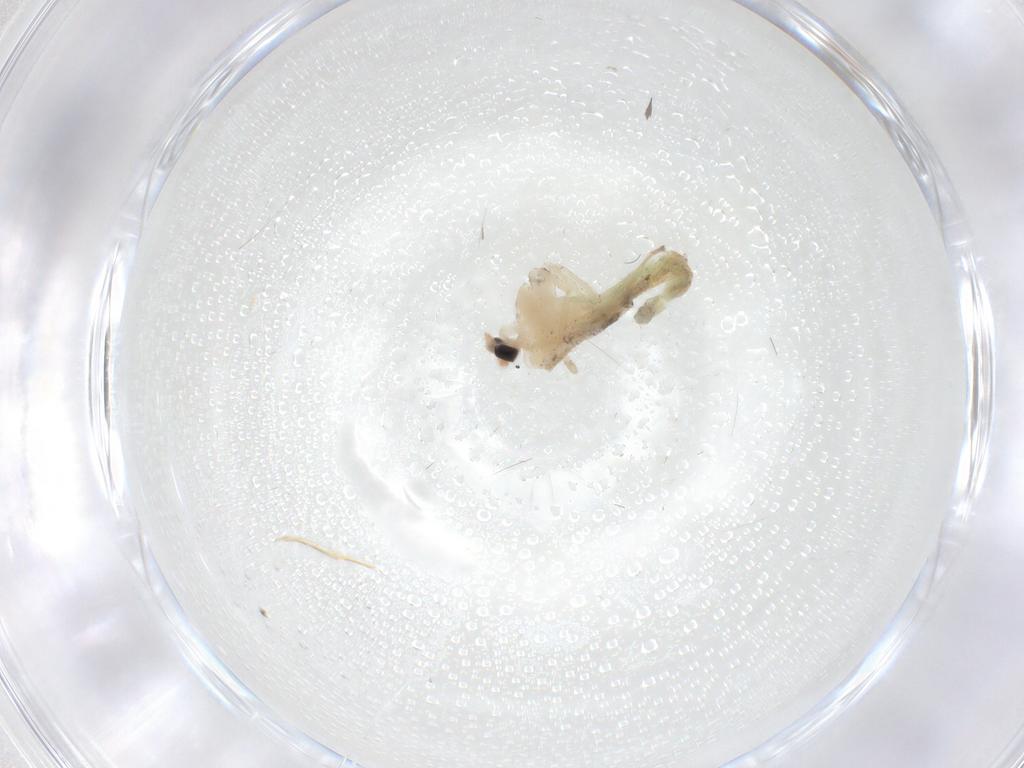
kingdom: Animalia
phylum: Arthropoda
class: Insecta
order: Diptera
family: Chironomidae
